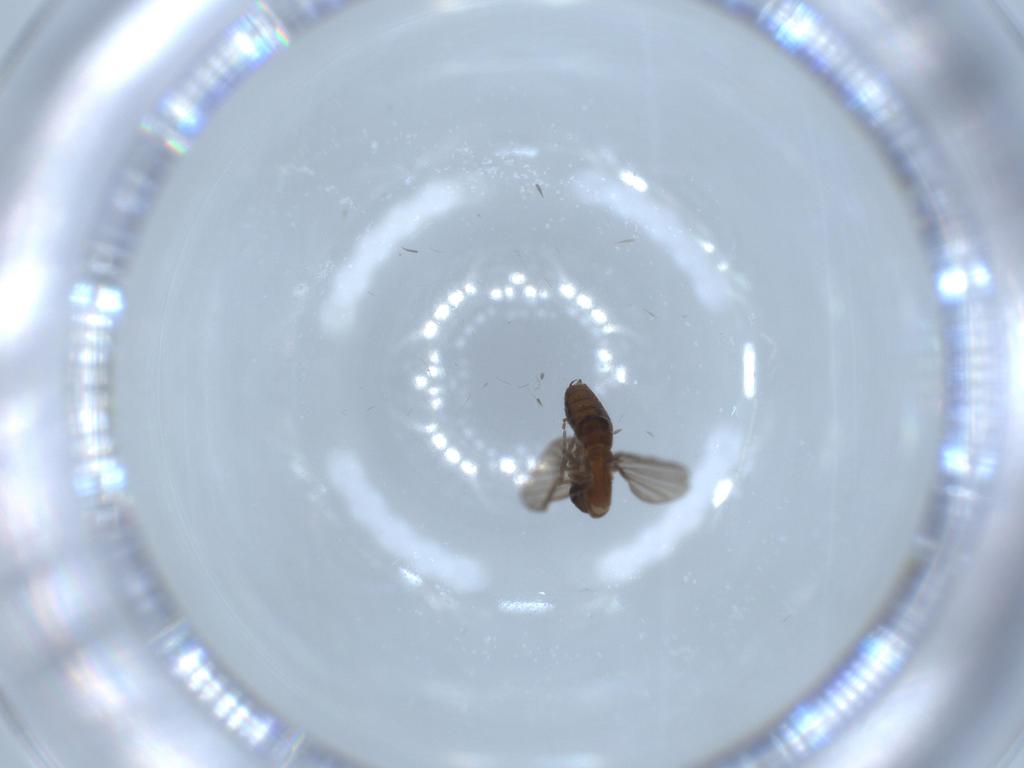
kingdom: Animalia
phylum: Arthropoda
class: Insecta
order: Diptera
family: Psychodidae
